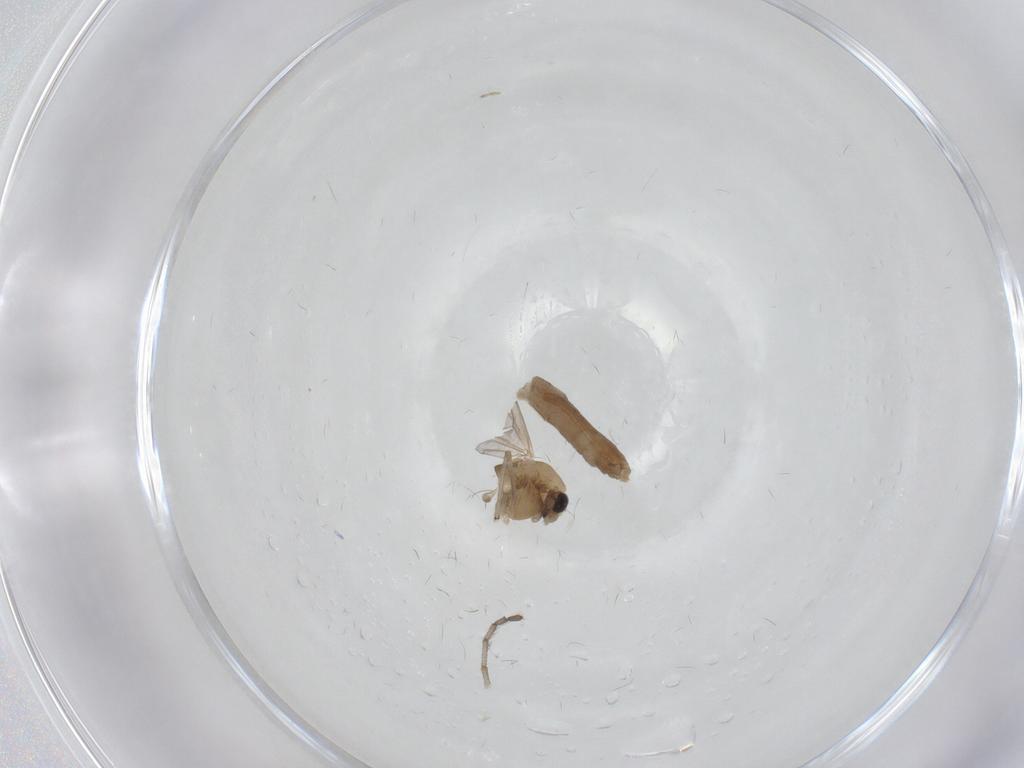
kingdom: Animalia
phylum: Arthropoda
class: Insecta
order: Diptera
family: Chironomidae
